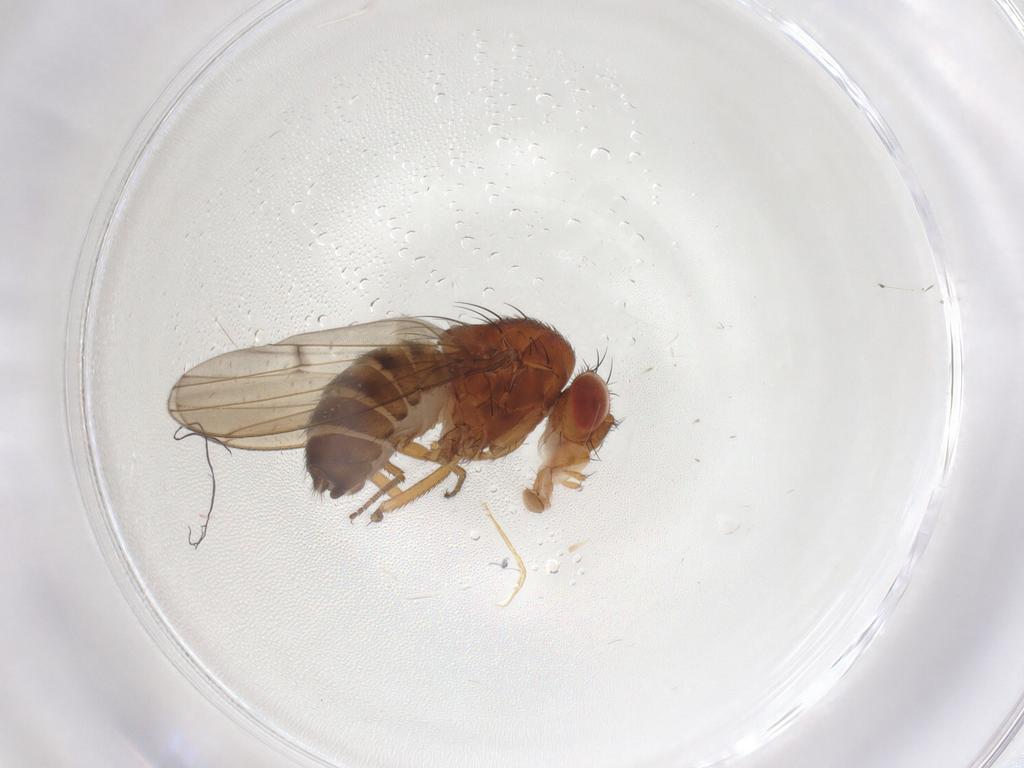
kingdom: Animalia
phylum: Arthropoda
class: Insecta
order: Diptera
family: Drosophilidae
